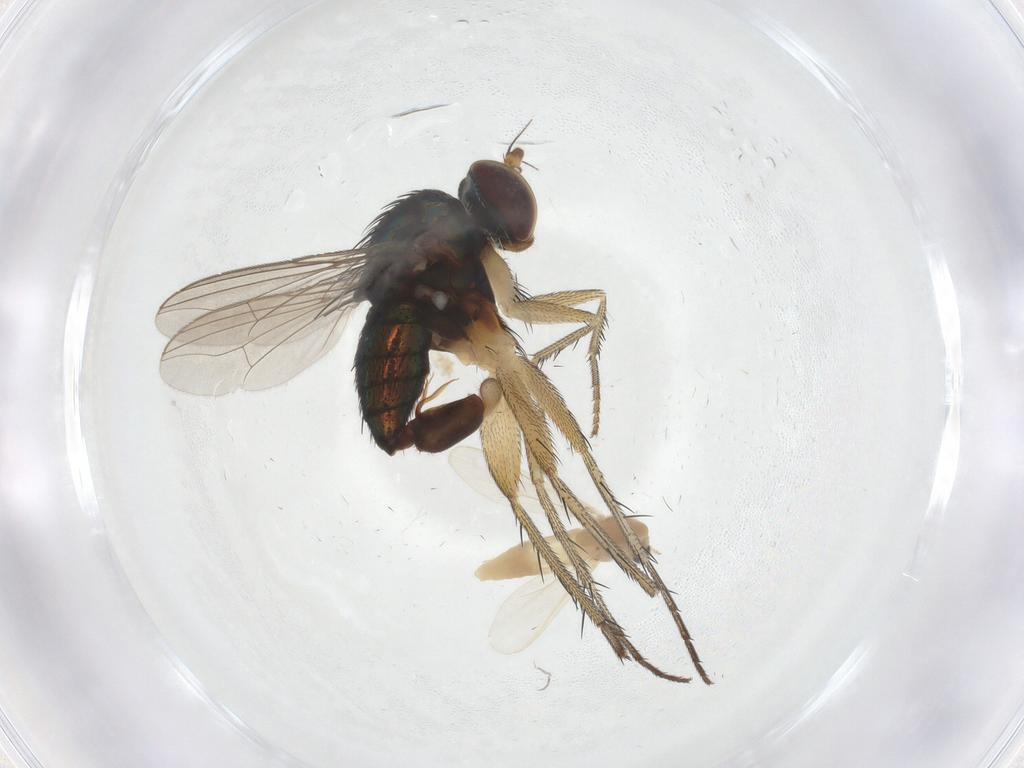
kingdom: Animalia
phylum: Arthropoda
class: Insecta
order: Diptera
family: Dolichopodidae
